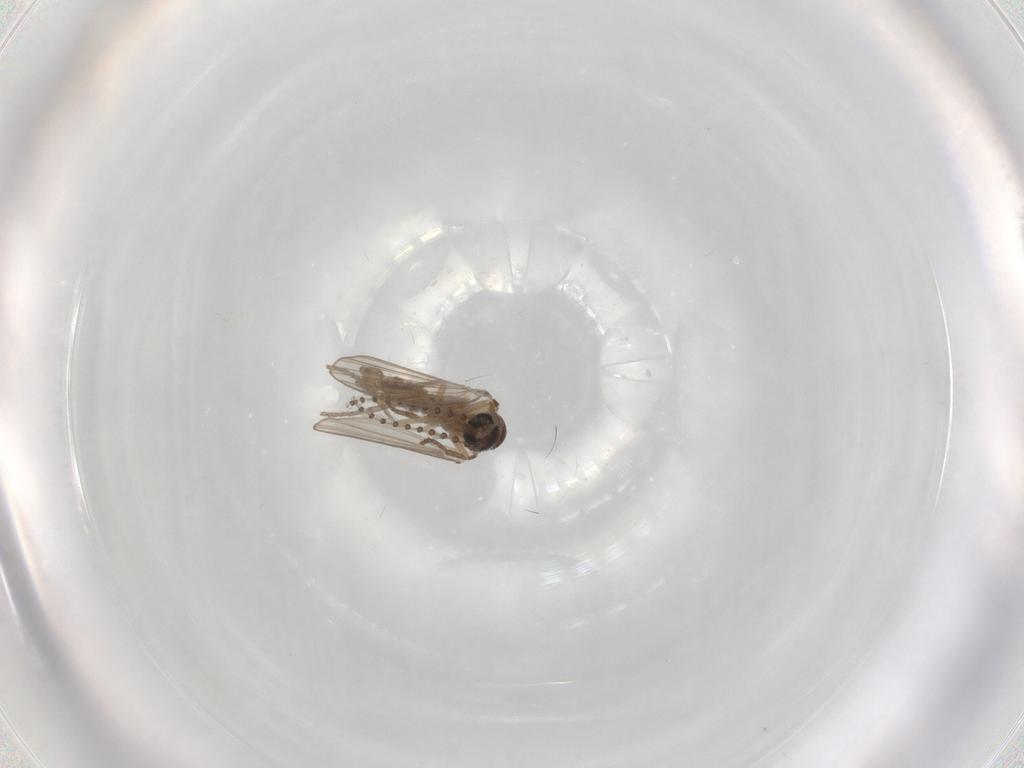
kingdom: Animalia
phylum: Arthropoda
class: Insecta
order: Diptera
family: Psychodidae
